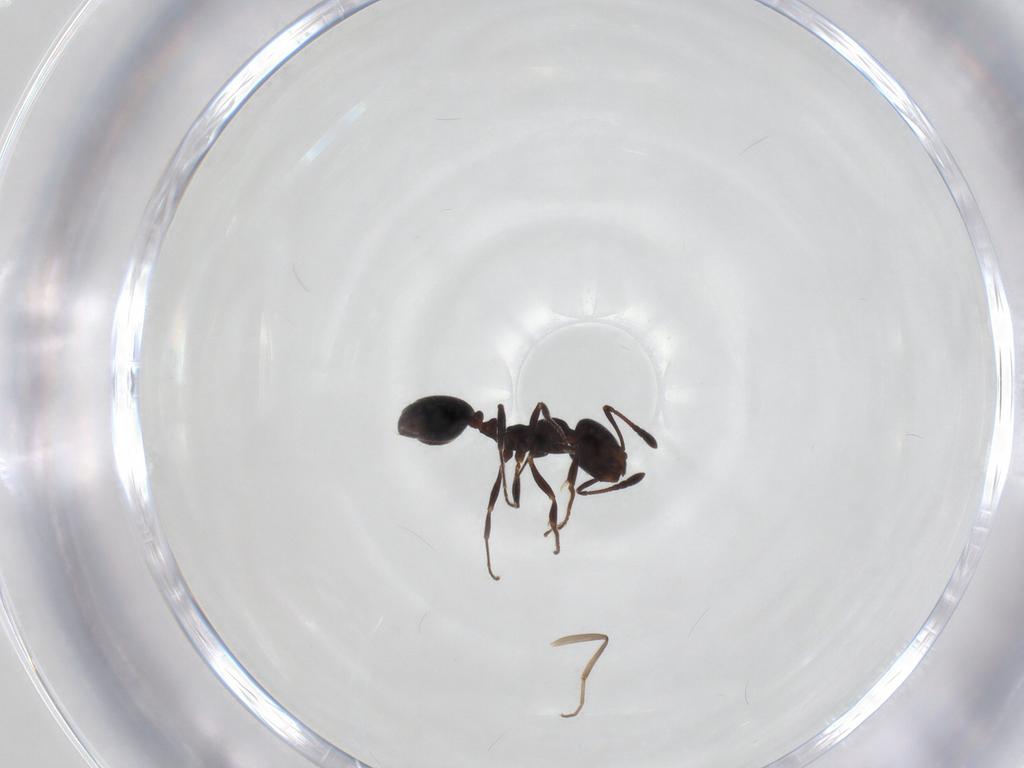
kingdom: Animalia
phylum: Arthropoda
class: Insecta
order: Hymenoptera
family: Formicidae
